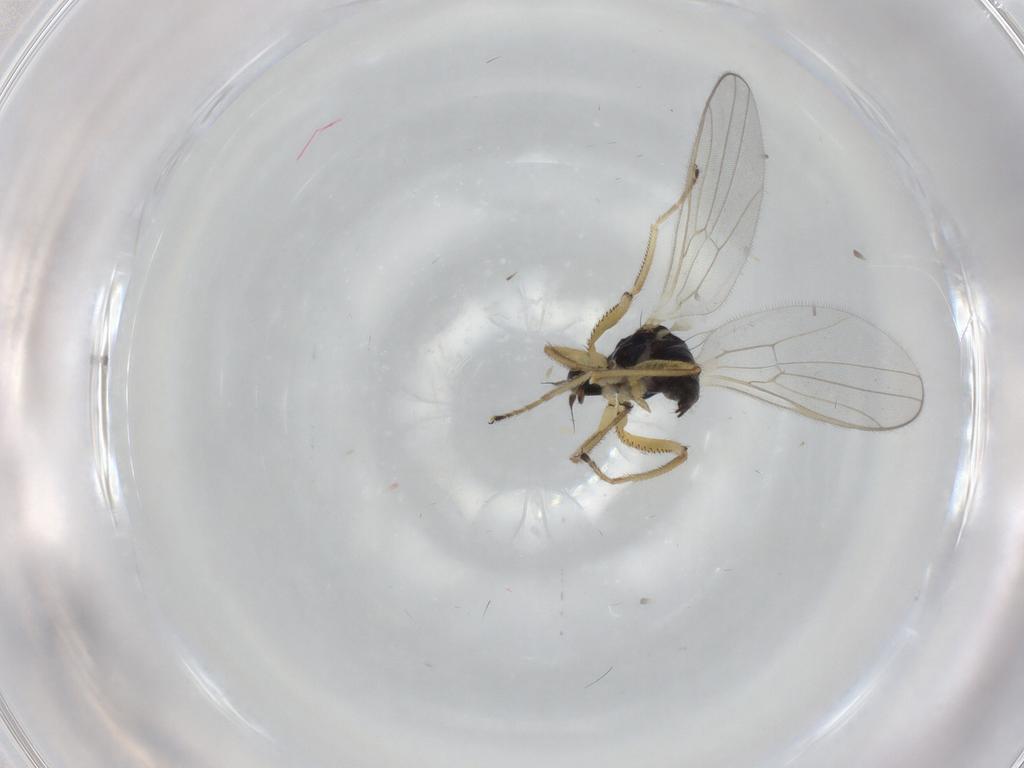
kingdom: Animalia
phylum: Arthropoda
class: Insecta
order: Diptera
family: Hybotidae
